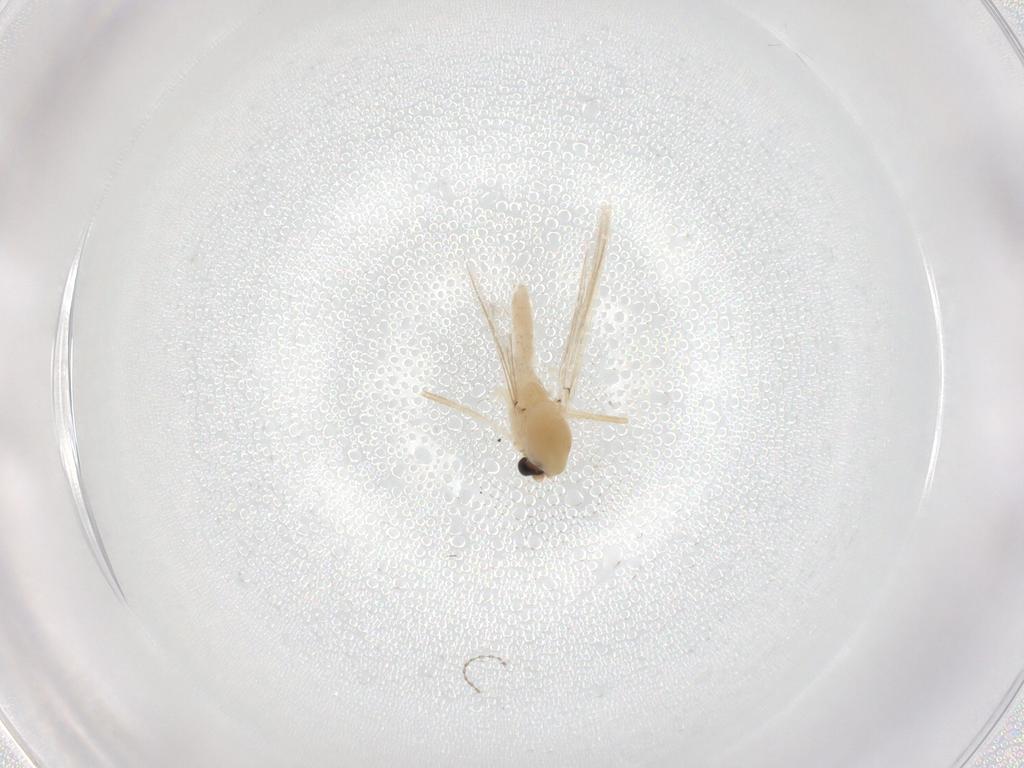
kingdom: Animalia
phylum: Arthropoda
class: Insecta
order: Diptera
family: Chironomidae
